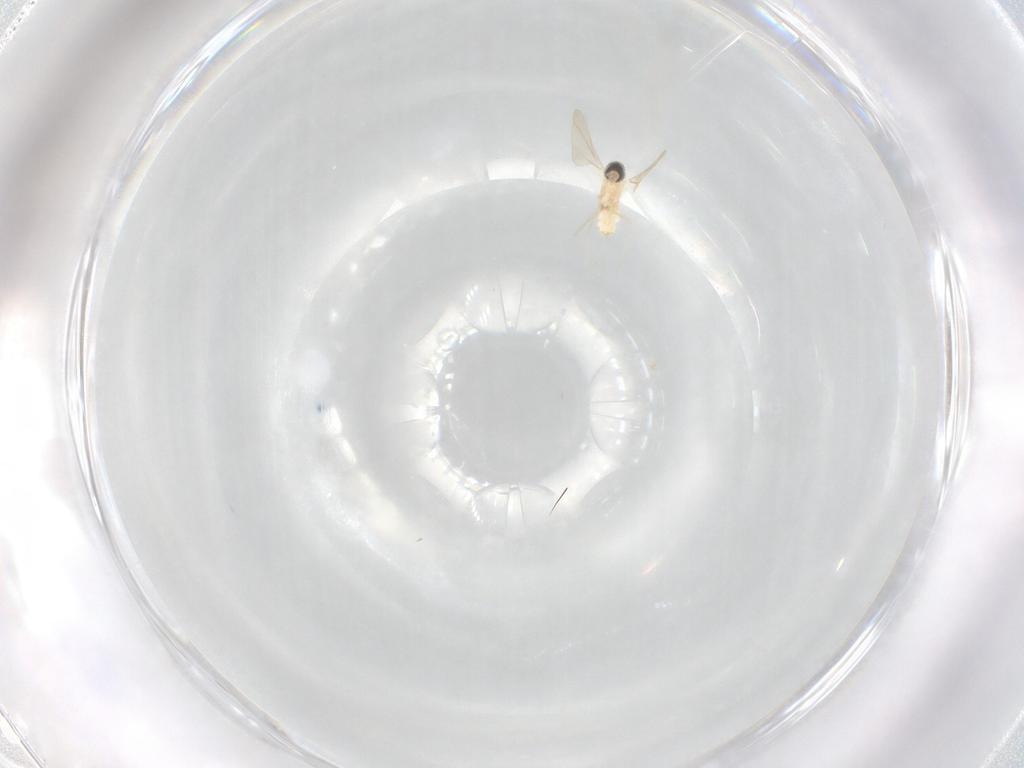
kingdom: Animalia
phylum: Arthropoda
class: Insecta
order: Diptera
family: Cecidomyiidae
